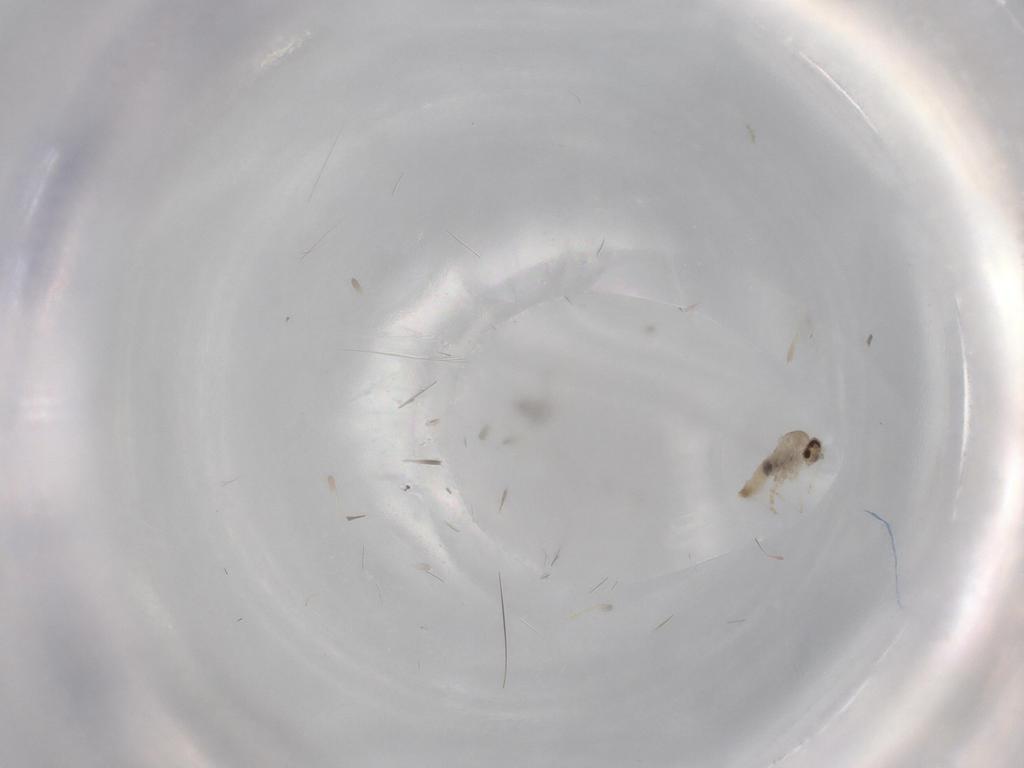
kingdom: Animalia
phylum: Arthropoda
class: Insecta
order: Diptera
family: Cecidomyiidae
